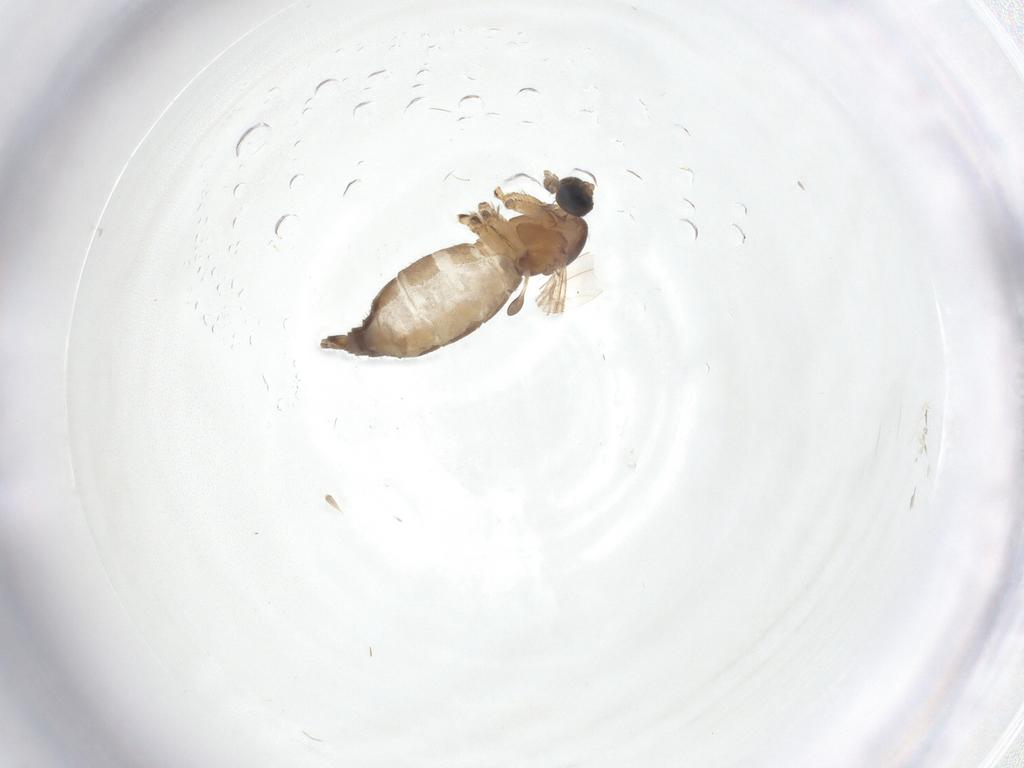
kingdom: Animalia
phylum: Arthropoda
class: Insecta
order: Diptera
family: Sciaridae
